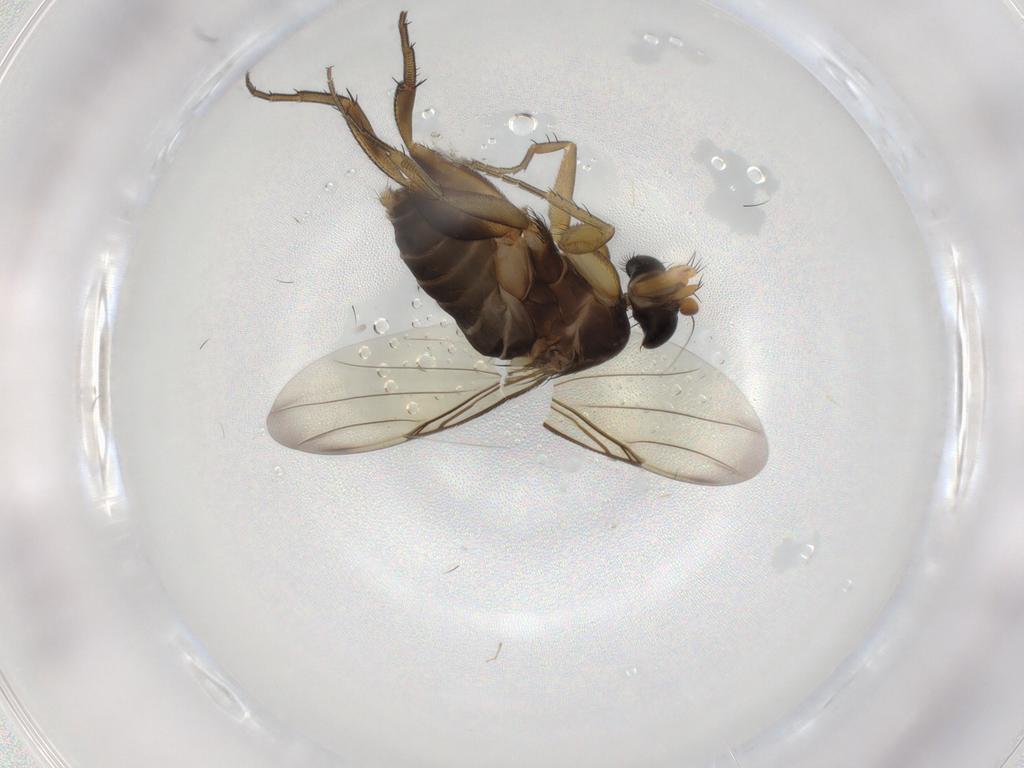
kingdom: Animalia
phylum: Arthropoda
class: Insecta
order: Diptera
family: Phoridae
